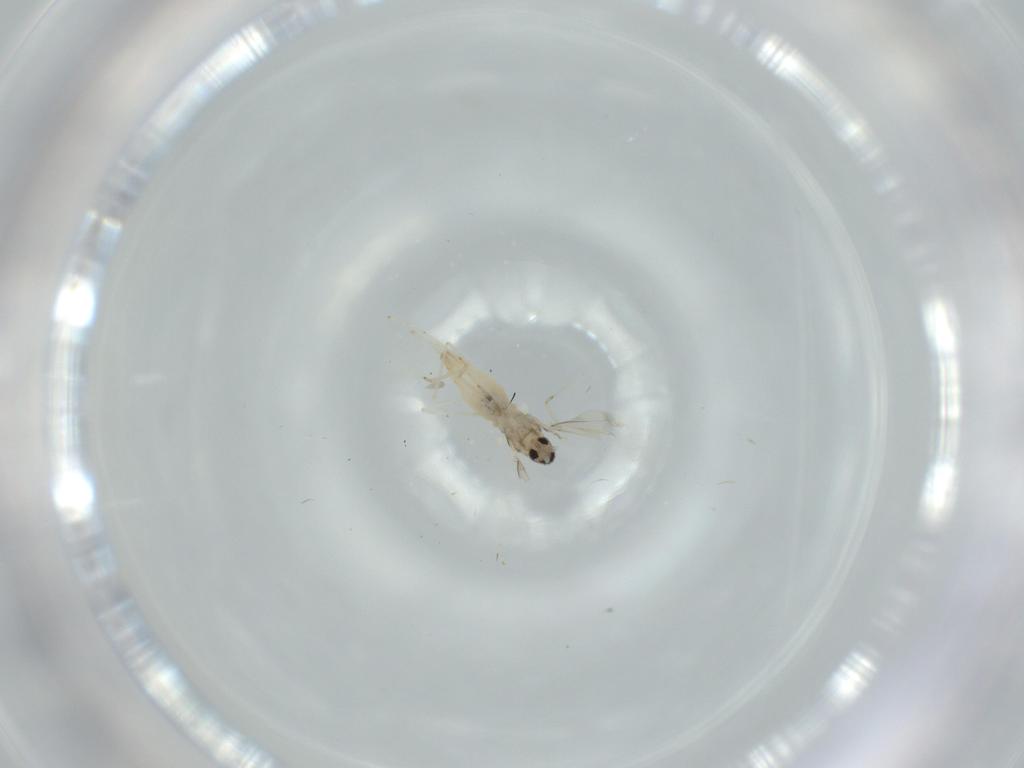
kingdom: Animalia
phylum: Arthropoda
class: Insecta
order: Diptera
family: Cecidomyiidae
